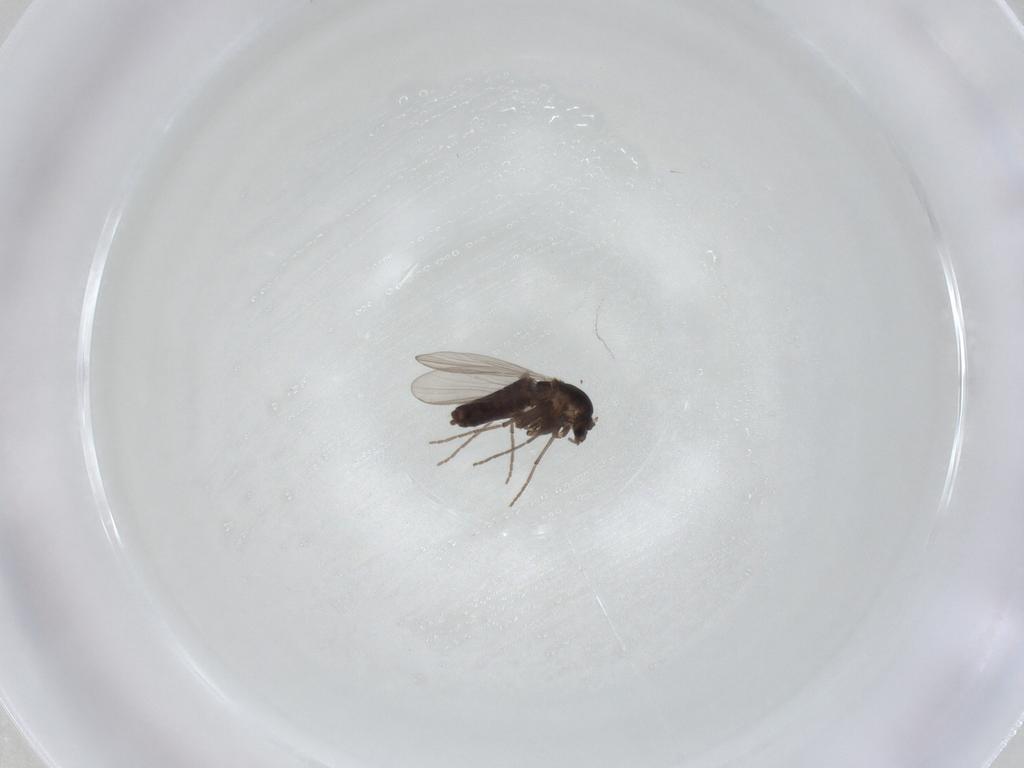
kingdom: Animalia
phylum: Arthropoda
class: Insecta
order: Diptera
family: Chironomidae
